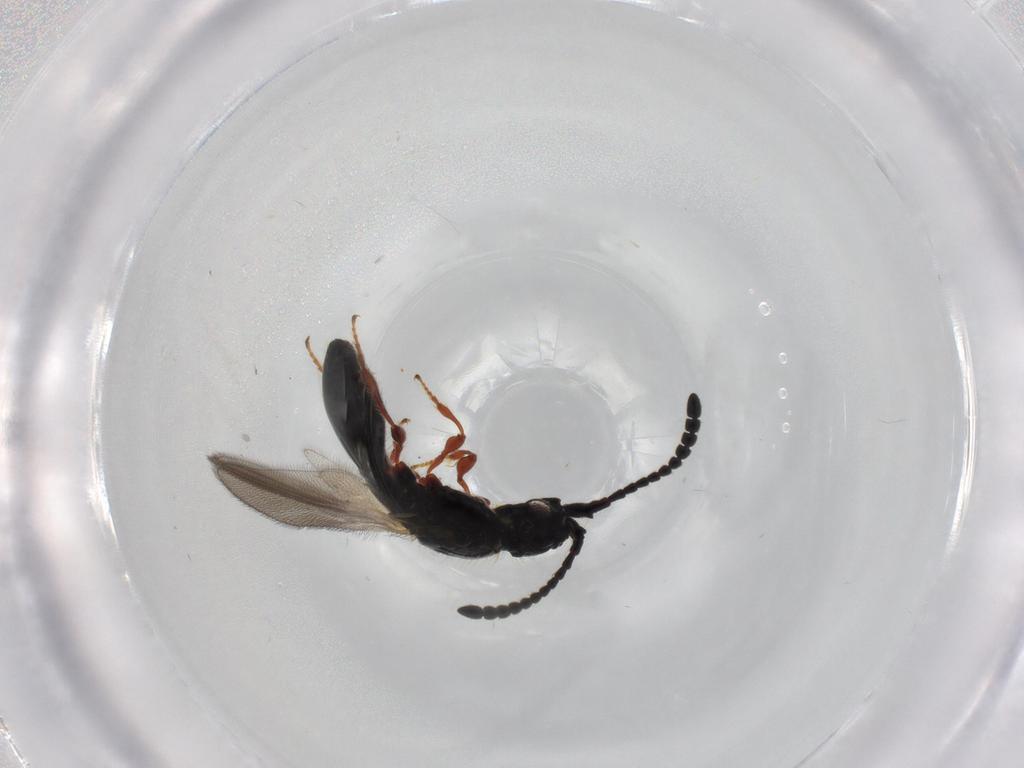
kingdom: Animalia
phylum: Arthropoda
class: Insecta
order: Hymenoptera
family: Diapriidae
